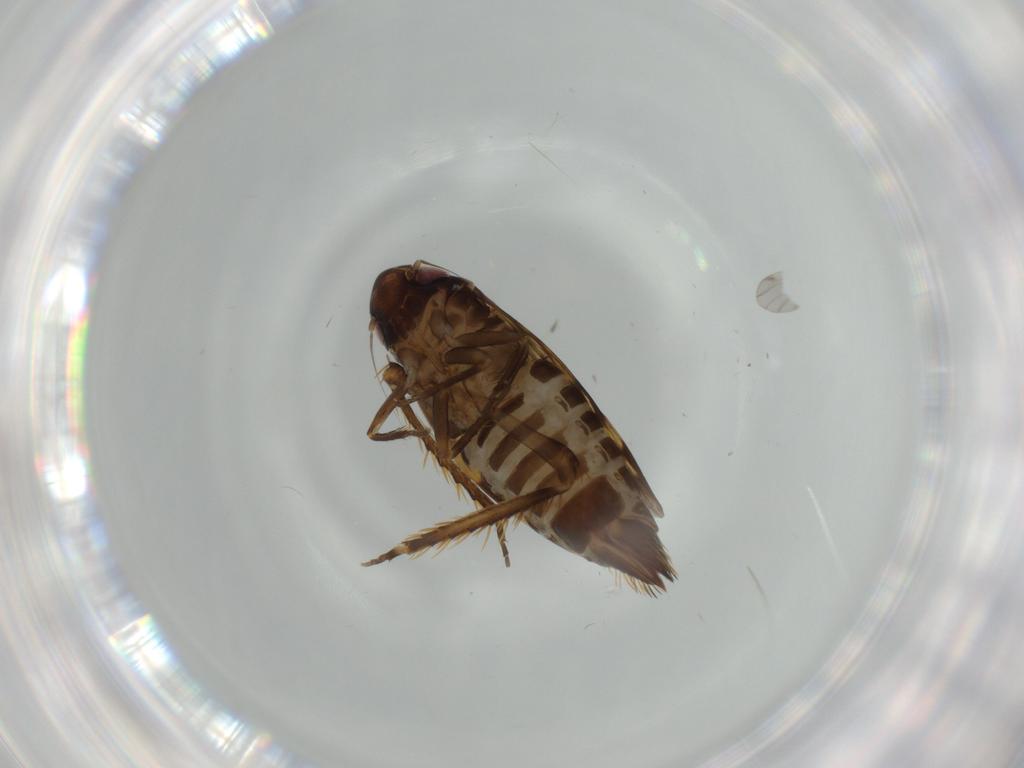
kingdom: Animalia
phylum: Arthropoda
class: Insecta
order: Hemiptera
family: Cicadellidae
